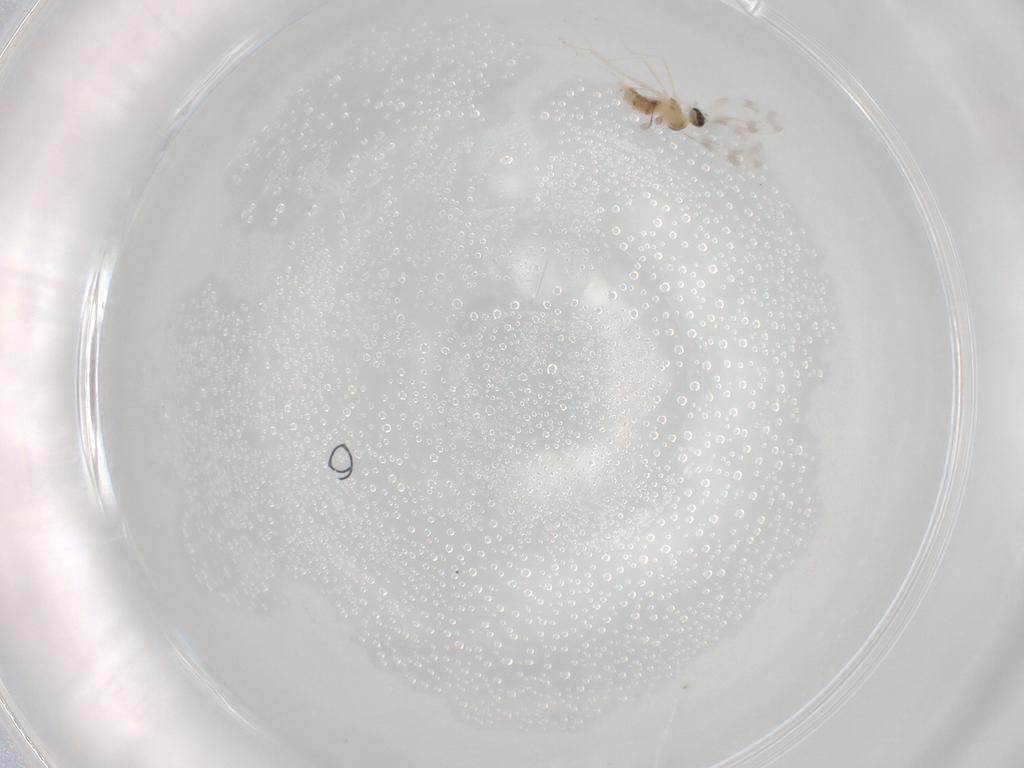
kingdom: Animalia
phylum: Arthropoda
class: Insecta
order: Diptera
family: Cecidomyiidae
